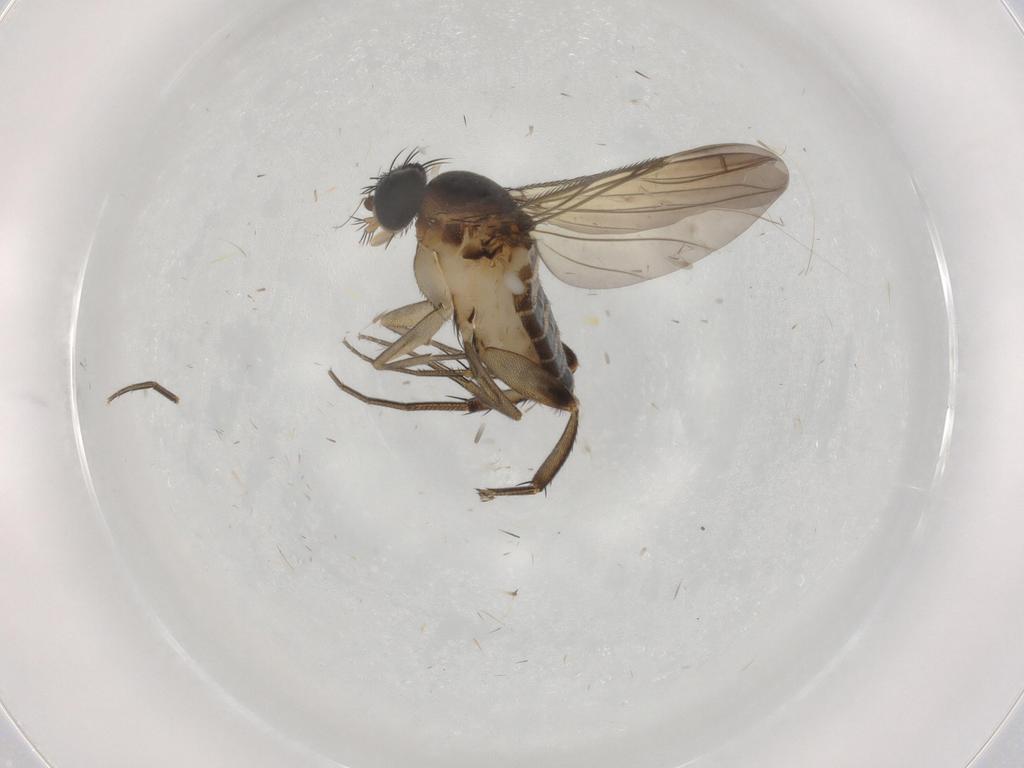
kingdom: Animalia
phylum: Arthropoda
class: Insecta
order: Diptera
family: Phoridae
